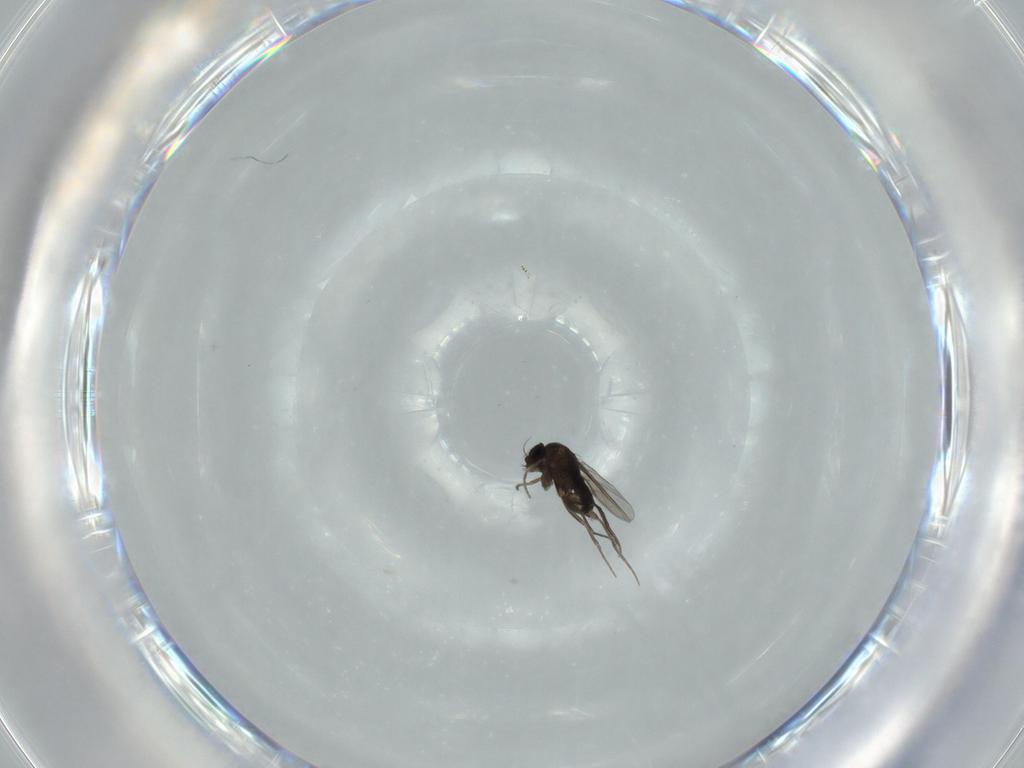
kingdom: Animalia
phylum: Arthropoda
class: Insecta
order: Diptera
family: Phoridae
